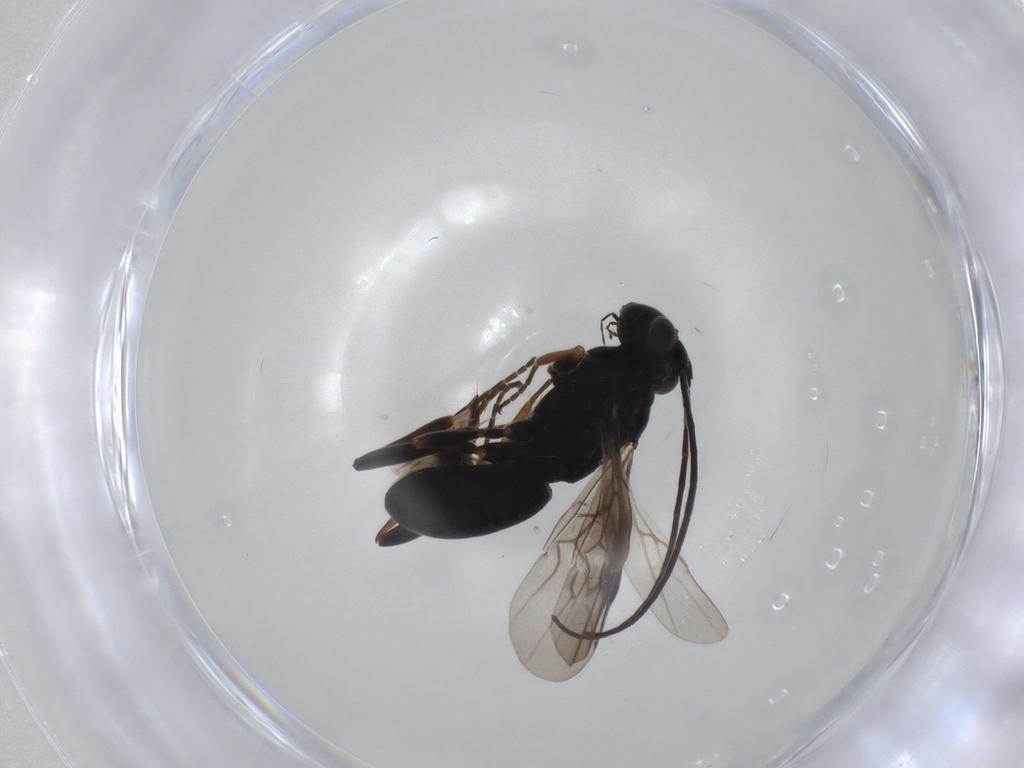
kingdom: Animalia
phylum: Arthropoda
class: Insecta
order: Hymenoptera
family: Braconidae
